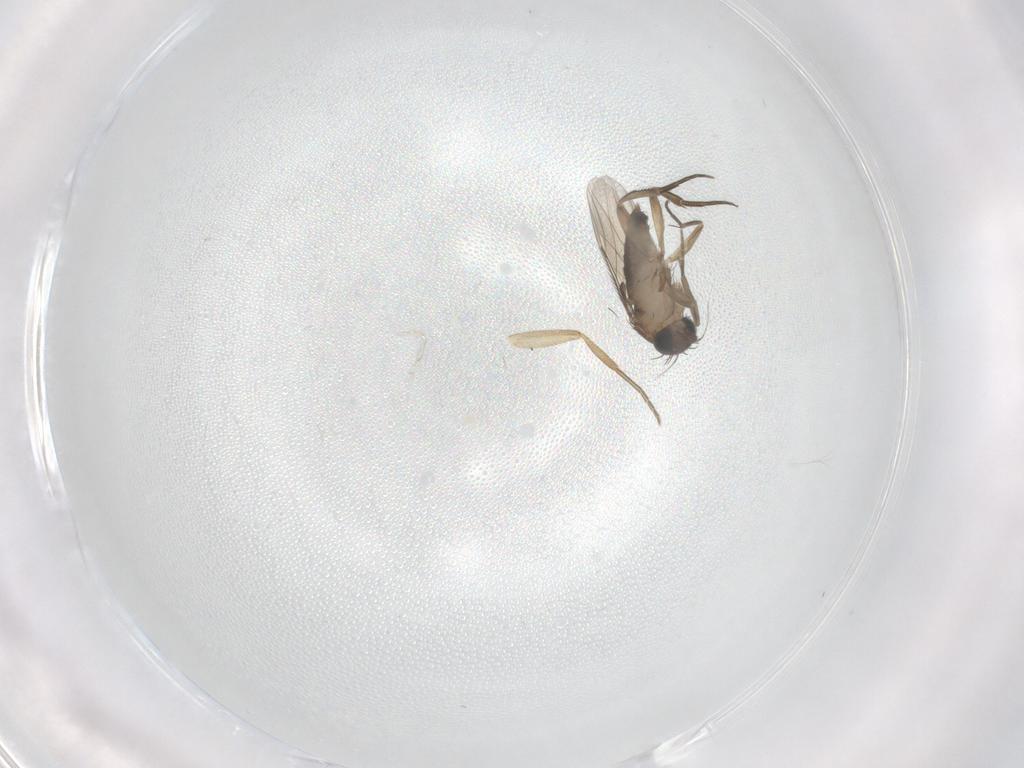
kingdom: Animalia
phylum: Arthropoda
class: Insecta
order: Diptera
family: Phoridae
